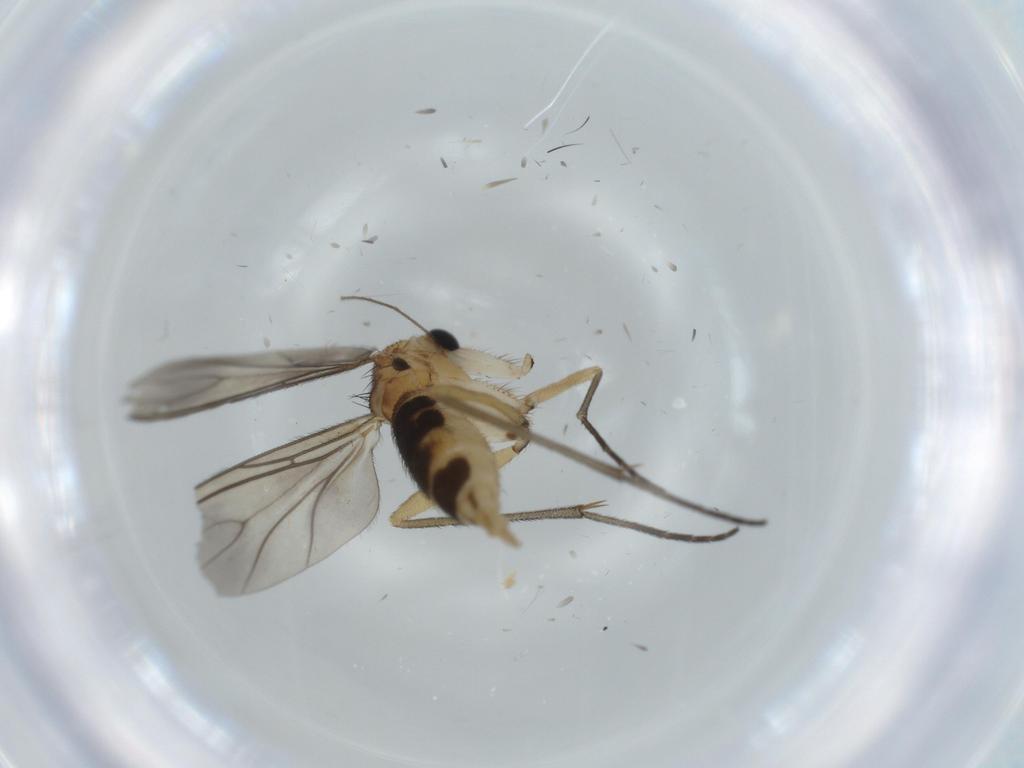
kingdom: Animalia
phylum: Arthropoda
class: Insecta
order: Diptera
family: Sciaridae
